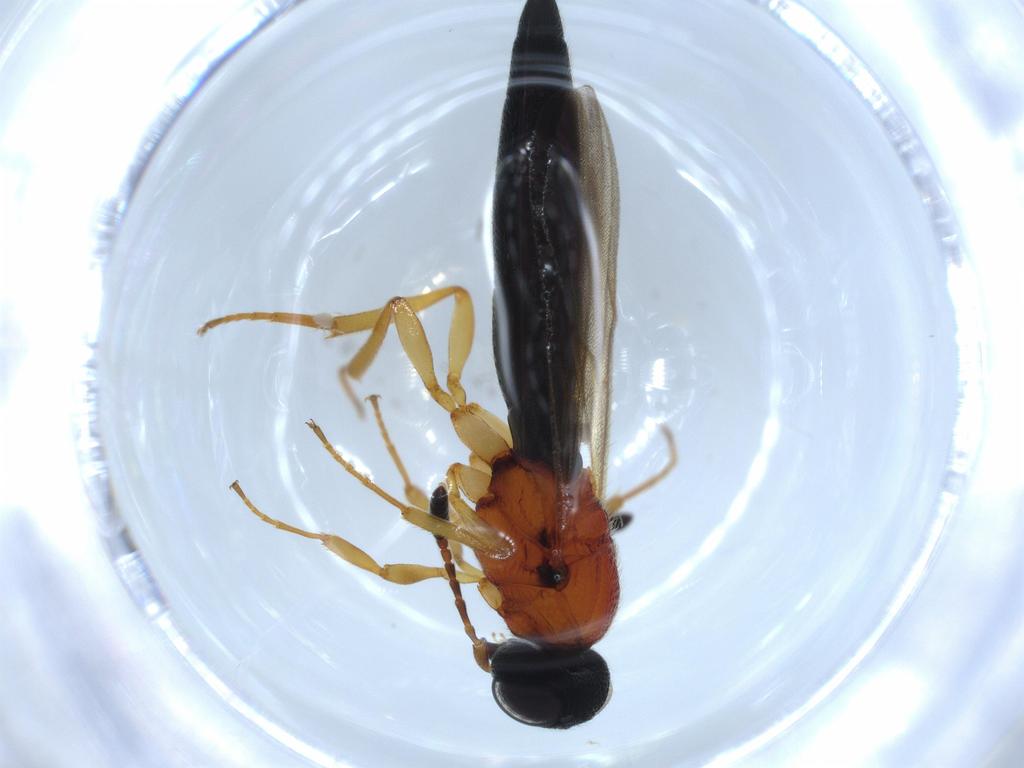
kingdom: Animalia
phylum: Arthropoda
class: Insecta
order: Hymenoptera
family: Scelionidae
